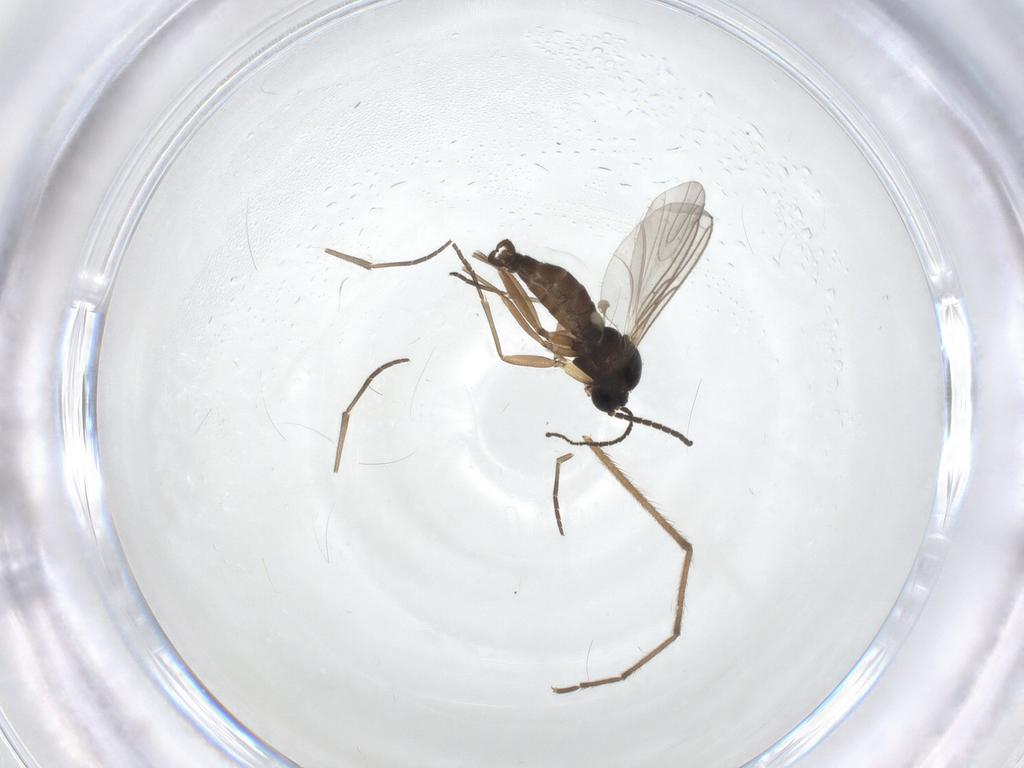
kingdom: Animalia
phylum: Arthropoda
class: Insecta
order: Diptera
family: Sciaridae
